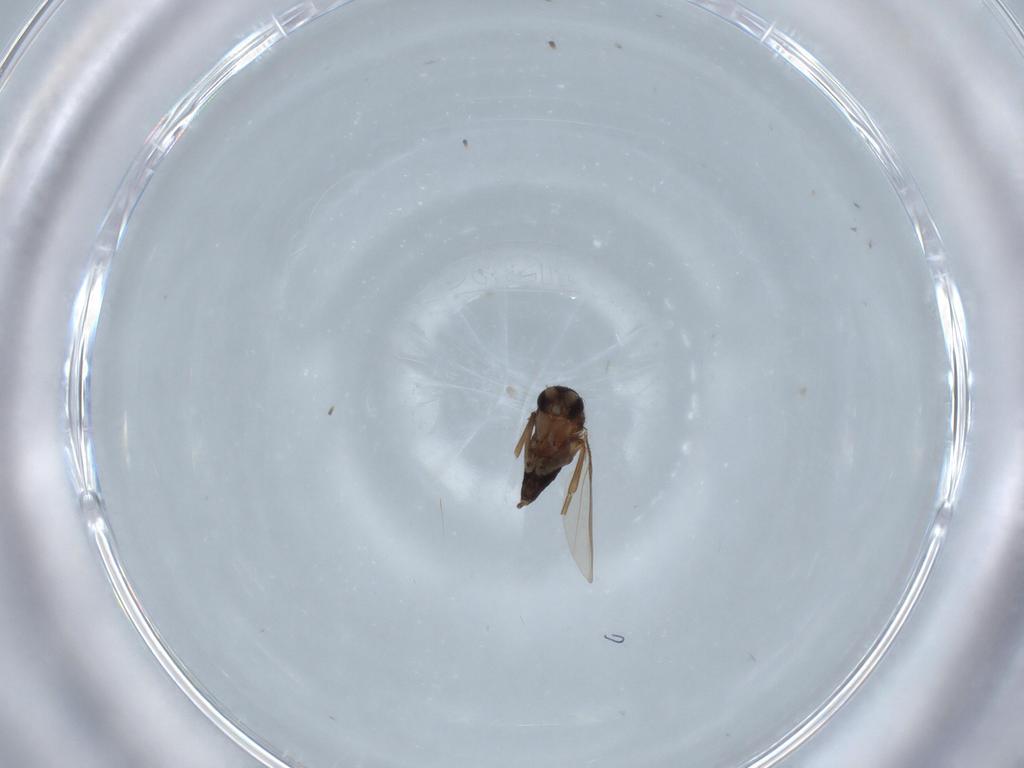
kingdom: Animalia
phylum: Arthropoda
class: Insecta
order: Diptera
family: Phoridae
